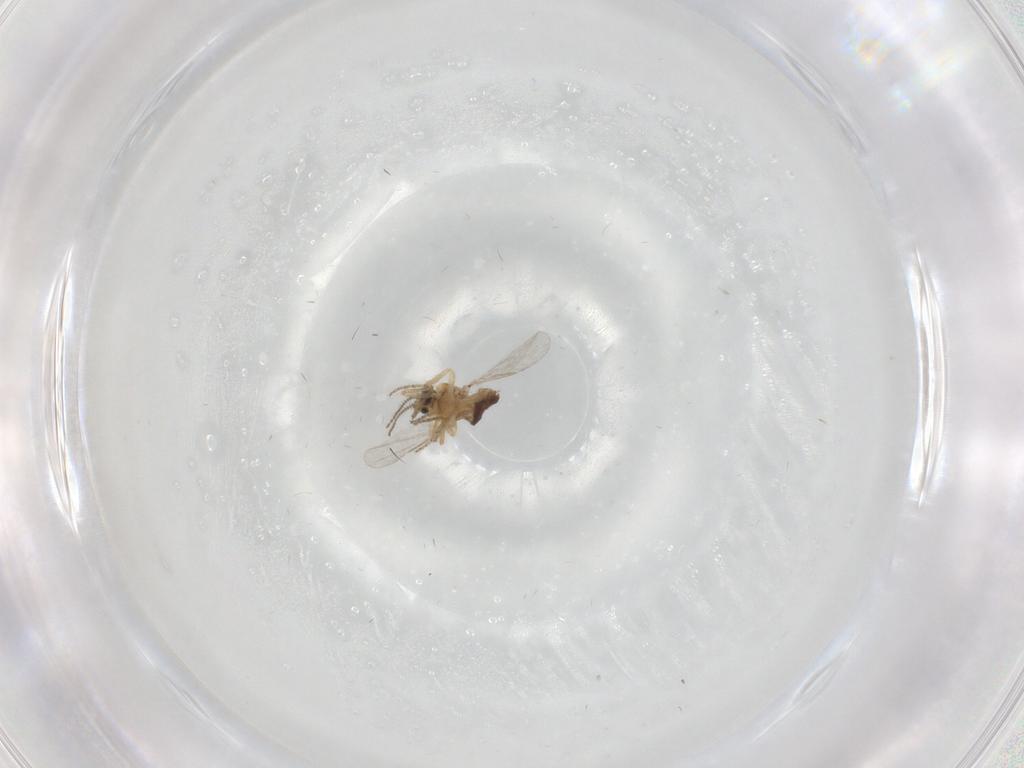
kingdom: Animalia
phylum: Arthropoda
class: Insecta
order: Diptera
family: Ceratopogonidae
